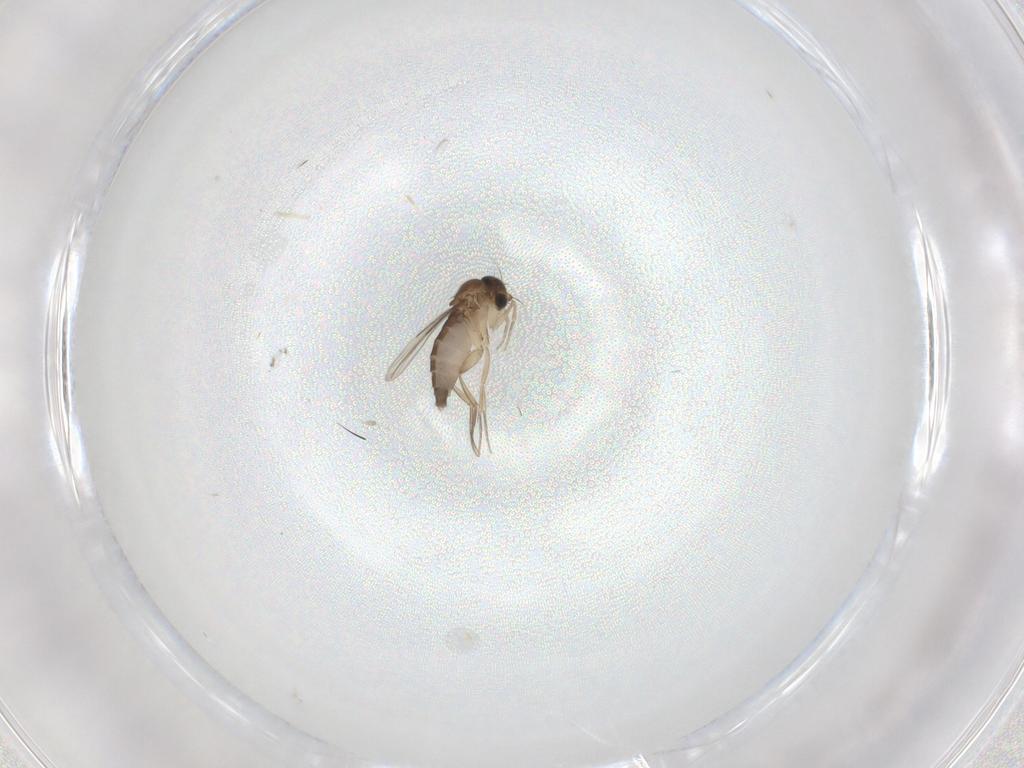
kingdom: Animalia
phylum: Arthropoda
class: Insecta
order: Diptera
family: Phoridae
